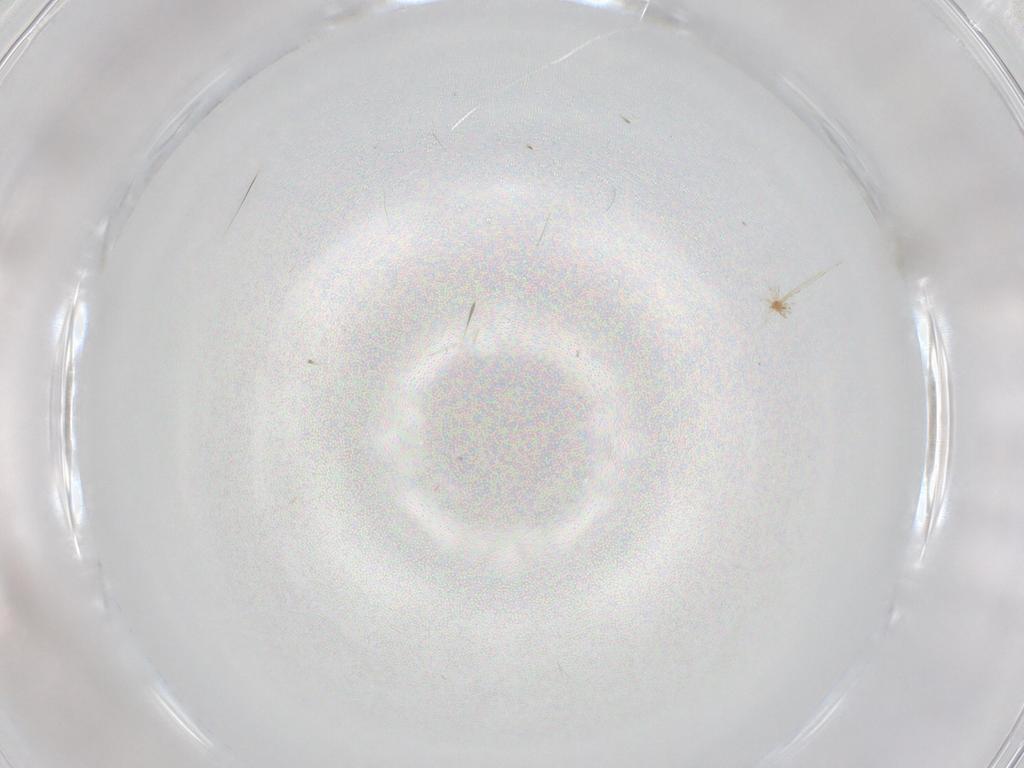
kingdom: Animalia
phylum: Arthropoda
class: Insecta
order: Diptera
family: Cecidomyiidae
